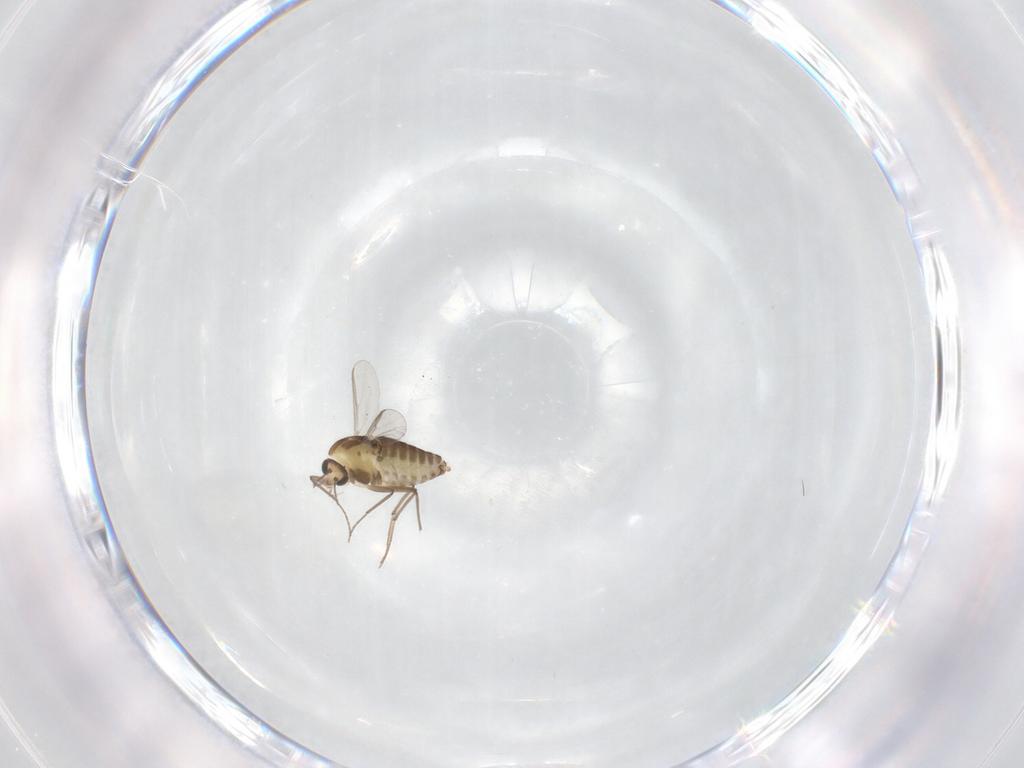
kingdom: Animalia
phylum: Arthropoda
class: Insecta
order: Diptera
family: Chironomidae
